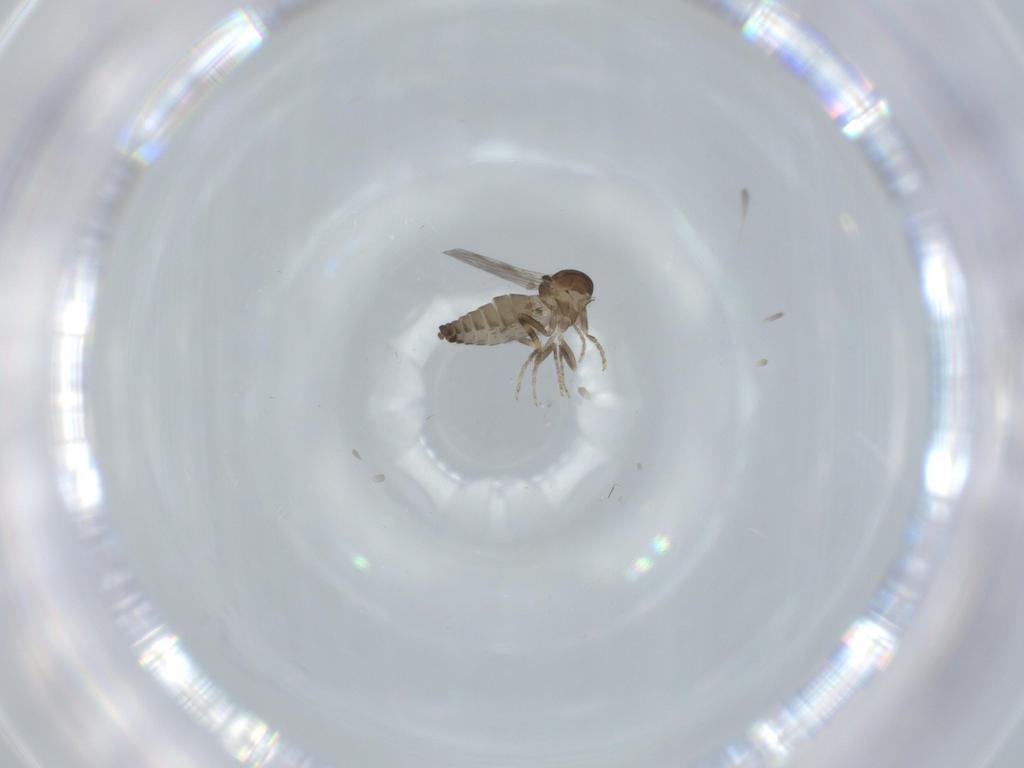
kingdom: Animalia
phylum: Arthropoda
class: Insecta
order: Diptera
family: Ceratopogonidae
